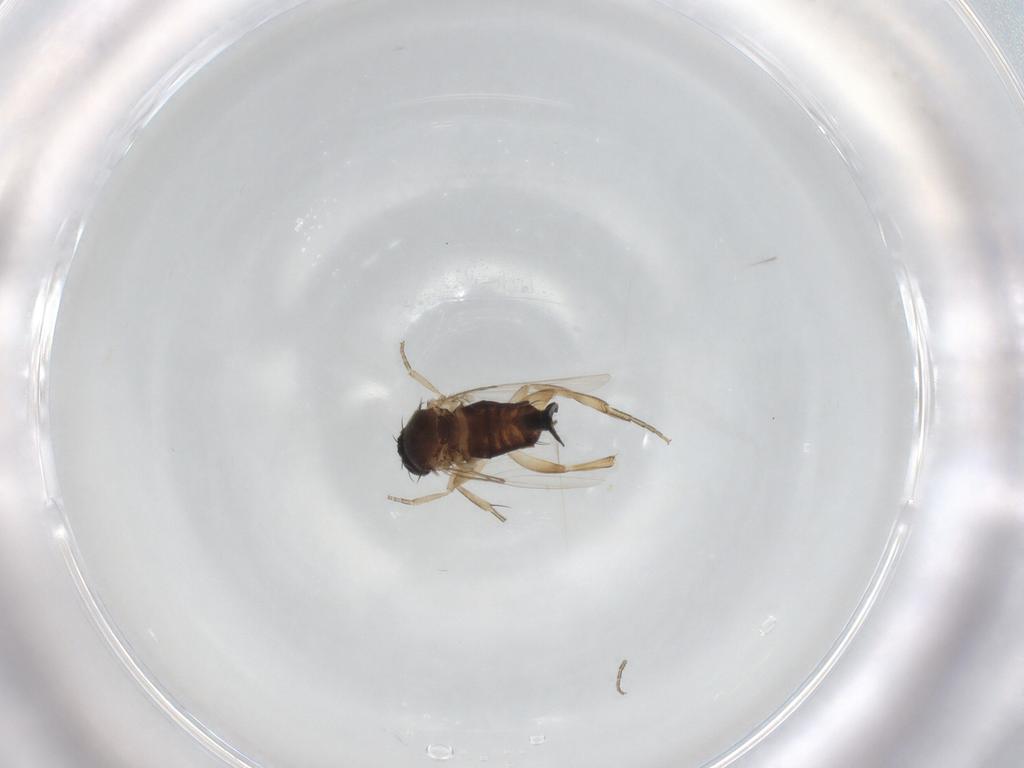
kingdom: Animalia
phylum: Arthropoda
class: Insecta
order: Diptera
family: Phoridae
